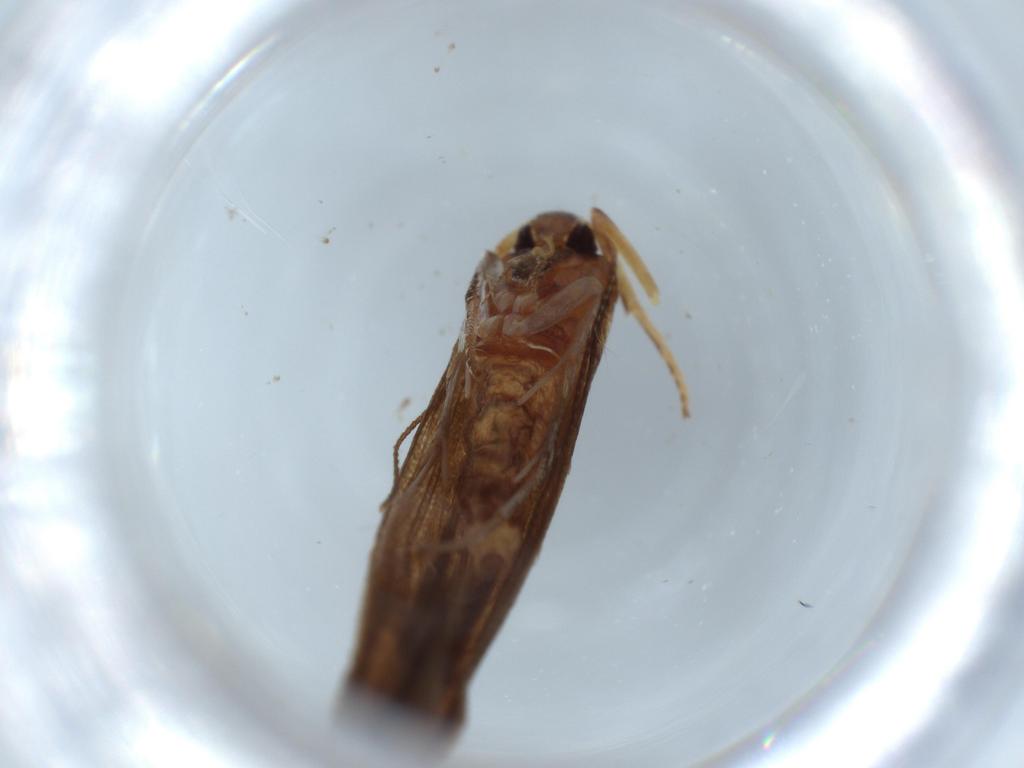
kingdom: Animalia
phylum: Arthropoda
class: Insecta
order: Lepidoptera
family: Stathmopodidae
